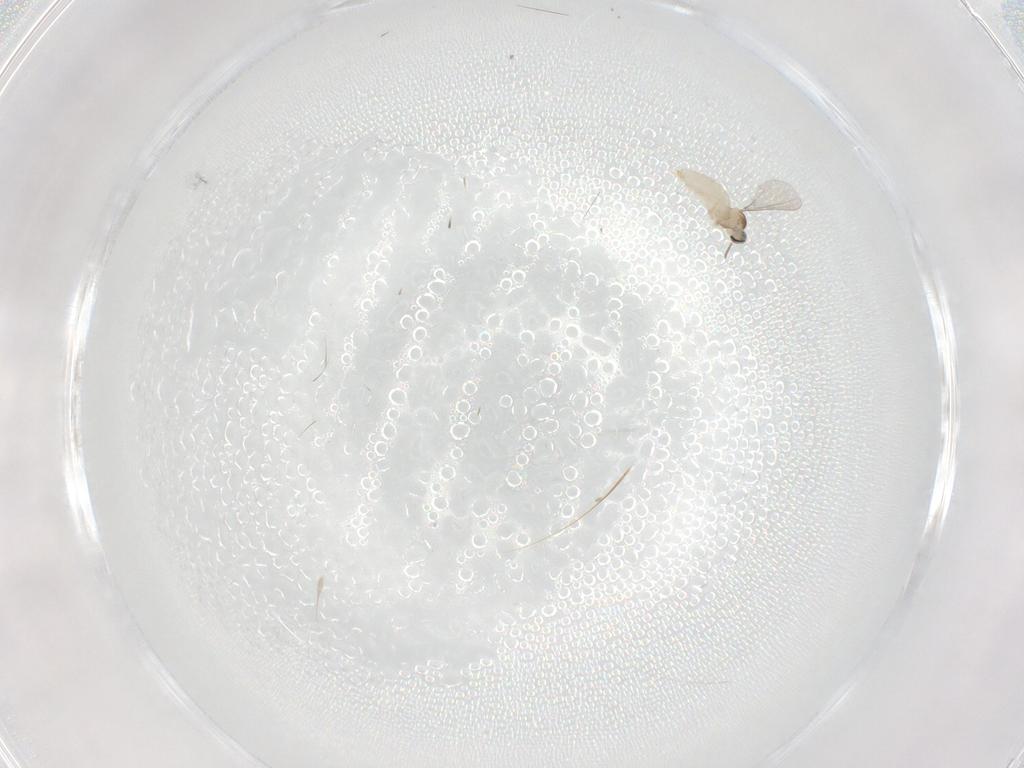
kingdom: Animalia
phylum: Arthropoda
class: Insecta
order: Diptera
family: Cecidomyiidae
